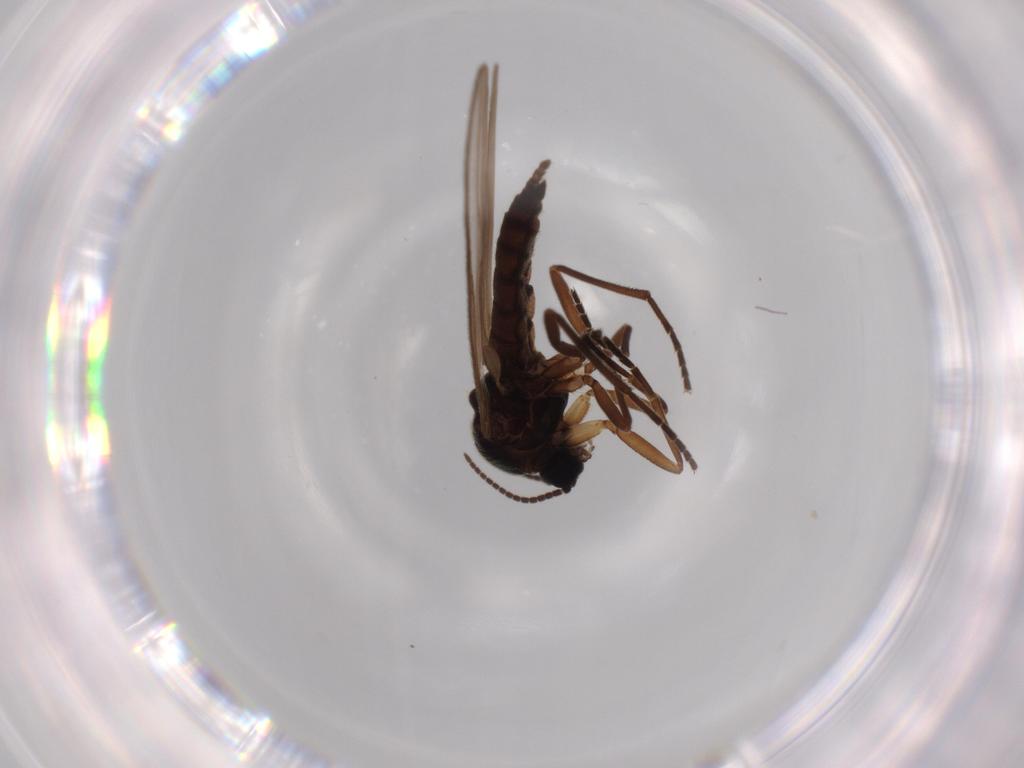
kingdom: Animalia
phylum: Arthropoda
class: Insecta
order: Diptera
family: Sciaridae
